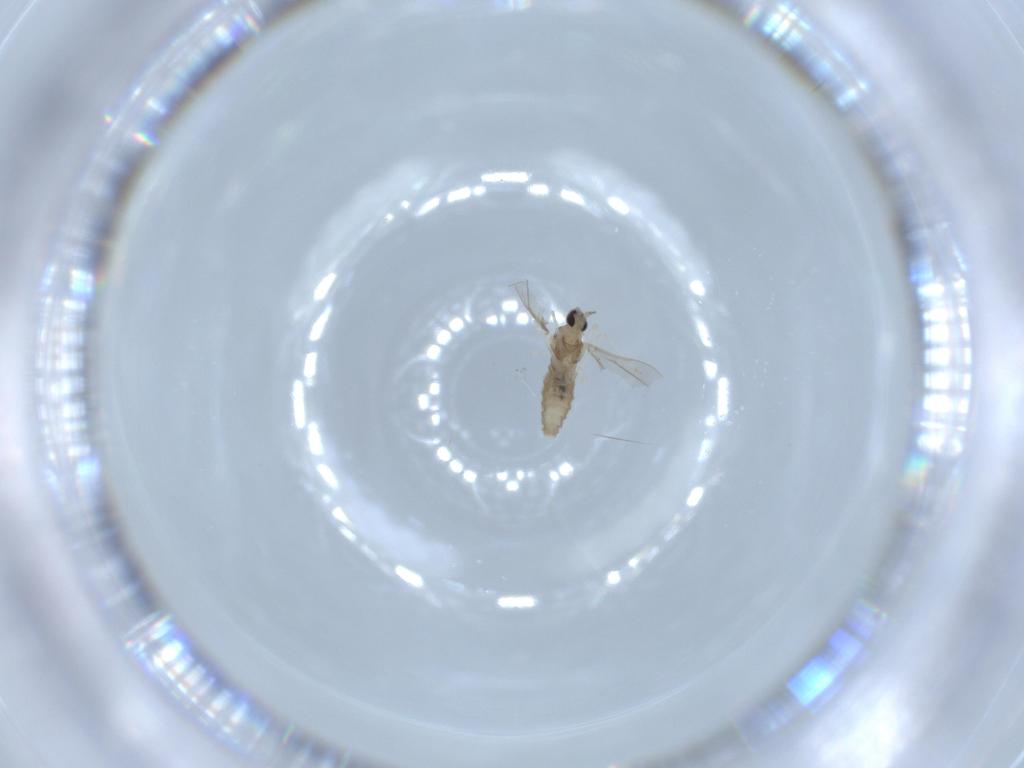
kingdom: Animalia
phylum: Arthropoda
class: Insecta
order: Diptera
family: Cecidomyiidae
